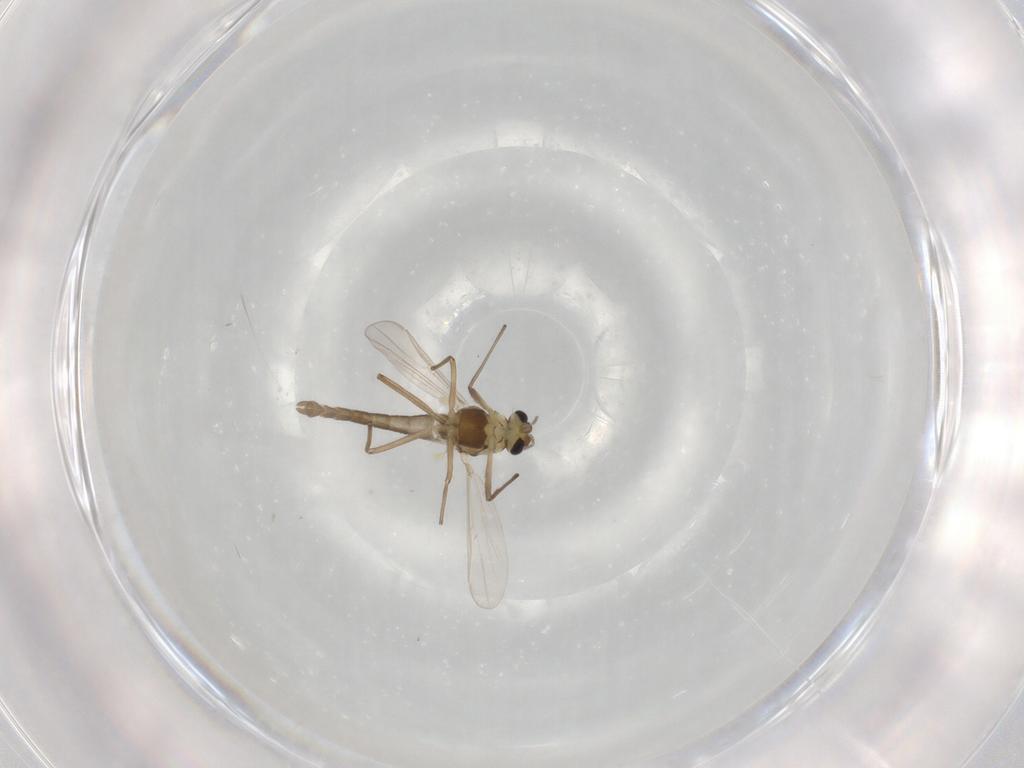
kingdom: Animalia
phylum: Arthropoda
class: Insecta
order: Diptera
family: Chironomidae
